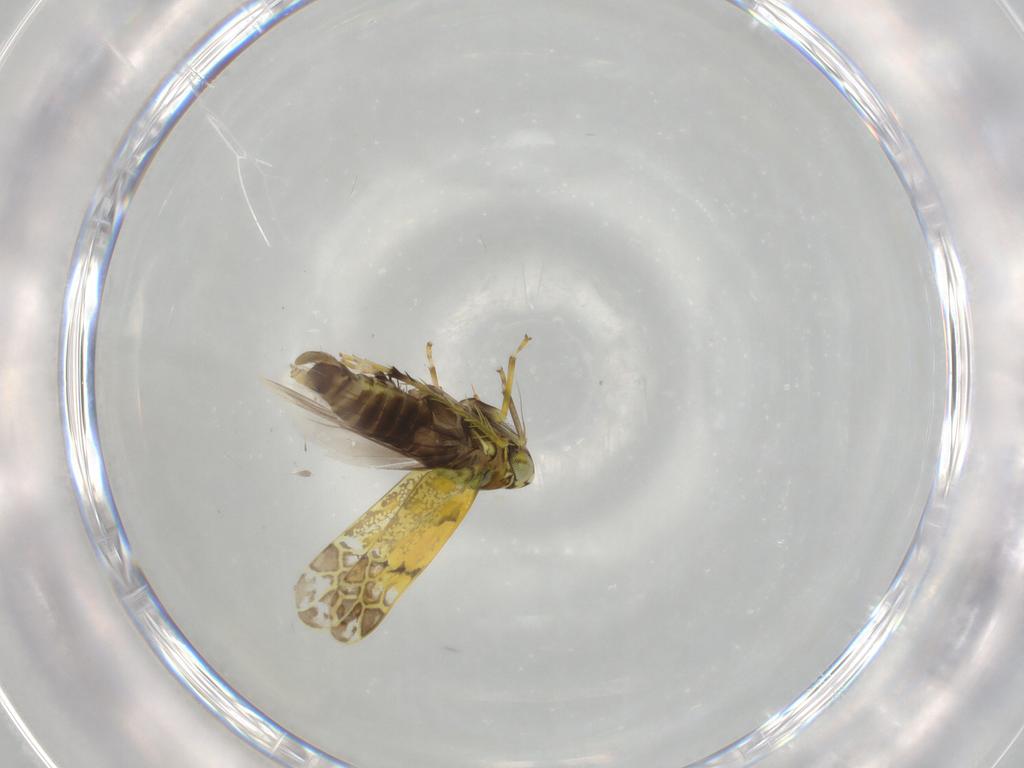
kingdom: Animalia
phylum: Arthropoda
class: Insecta
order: Hemiptera
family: Cicadellidae
